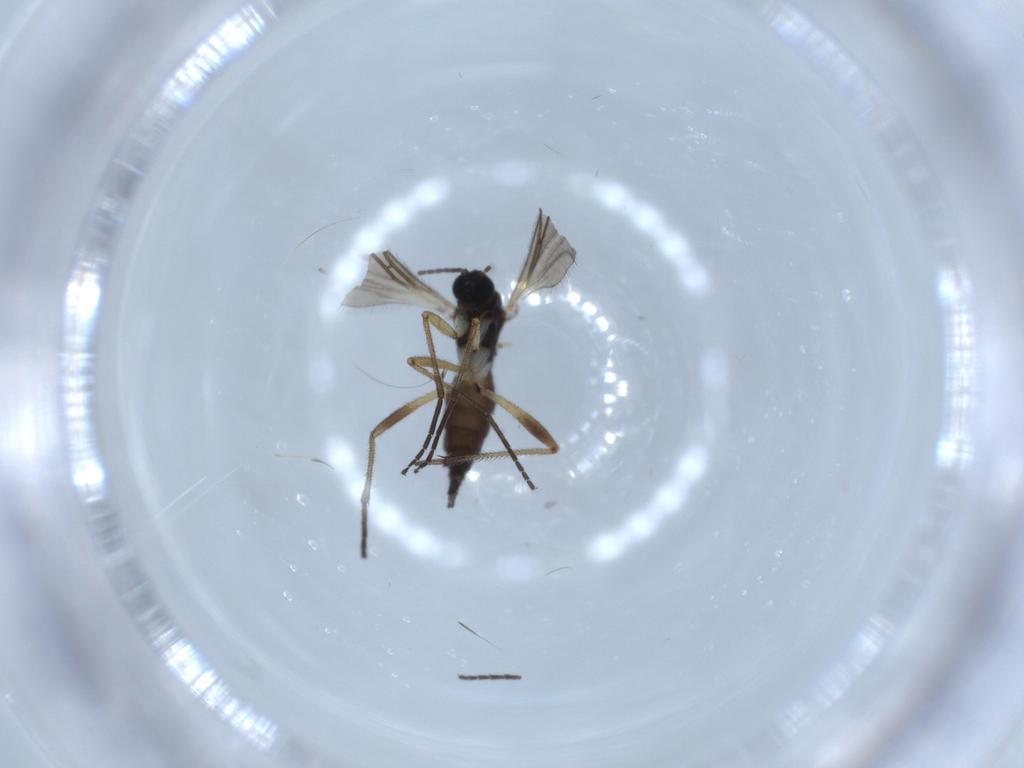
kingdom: Animalia
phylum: Arthropoda
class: Insecta
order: Diptera
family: Sciaridae
